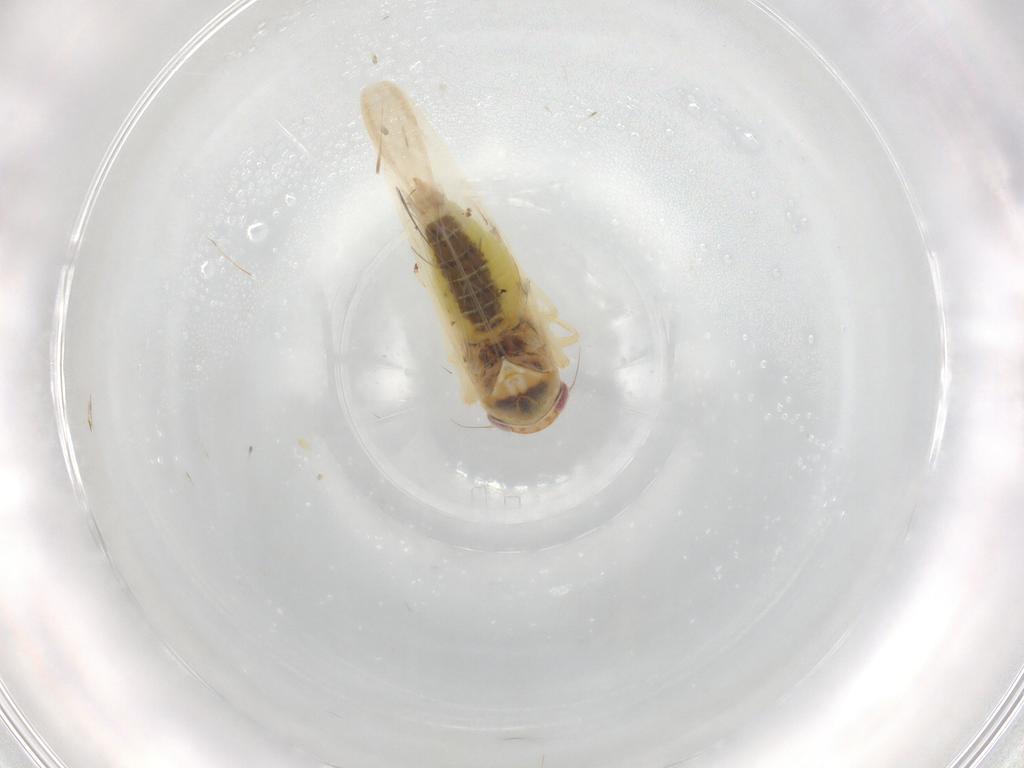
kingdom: Animalia
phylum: Arthropoda
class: Insecta
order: Hemiptera
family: Cicadellidae
